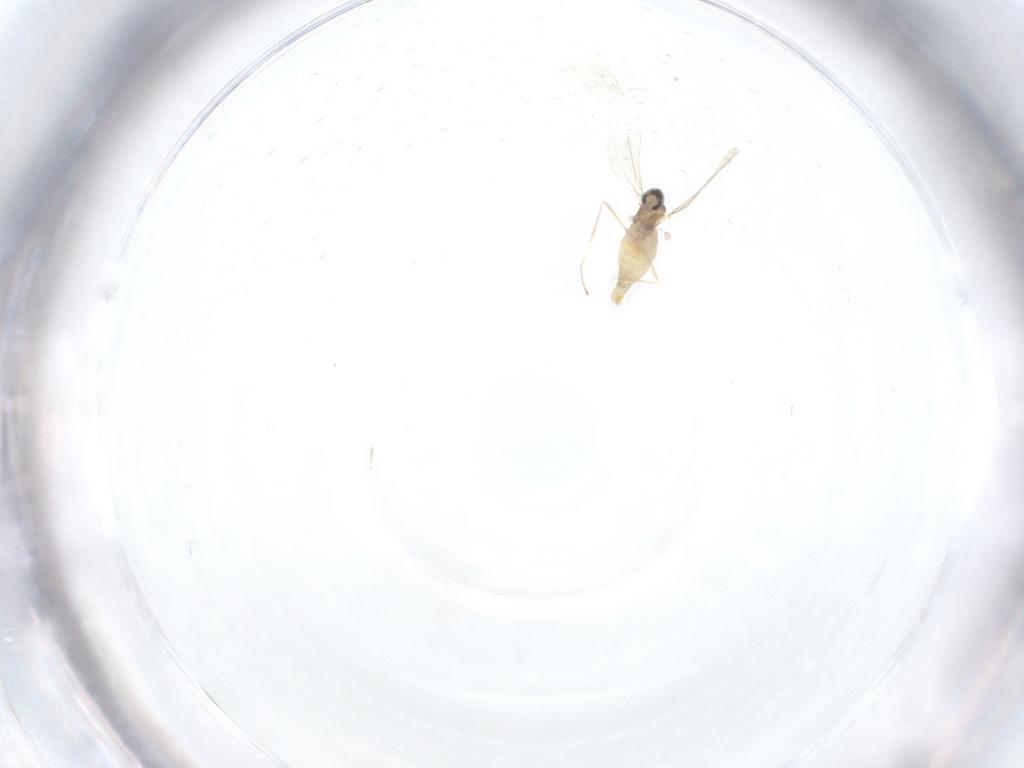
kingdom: Animalia
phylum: Arthropoda
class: Insecta
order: Diptera
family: Cecidomyiidae
